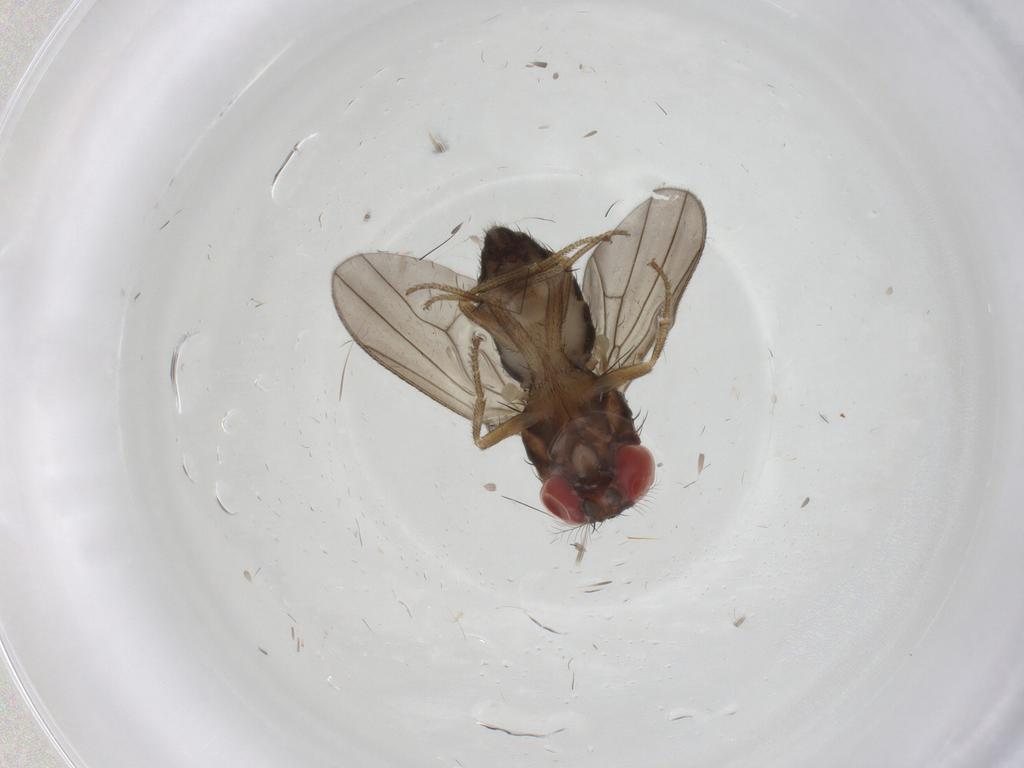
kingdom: Animalia
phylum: Arthropoda
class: Insecta
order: Diptera
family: Drosophilidae
